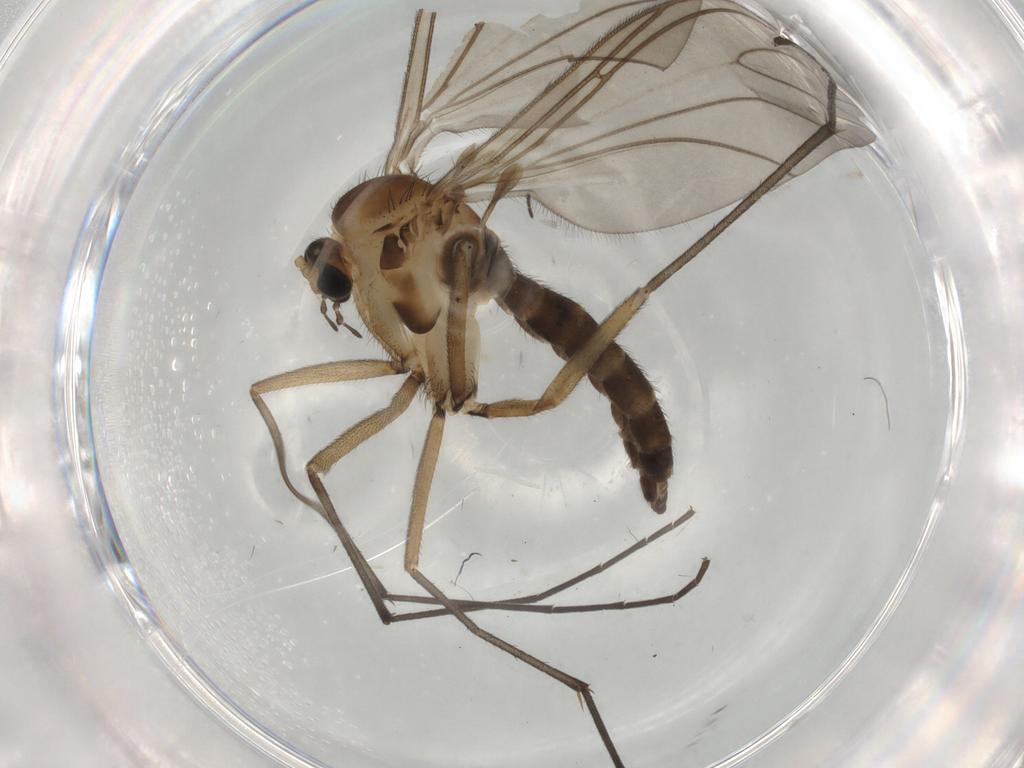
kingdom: Animalia
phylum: Arthropoda
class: Insecta
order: Diptera
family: Sciaridae
